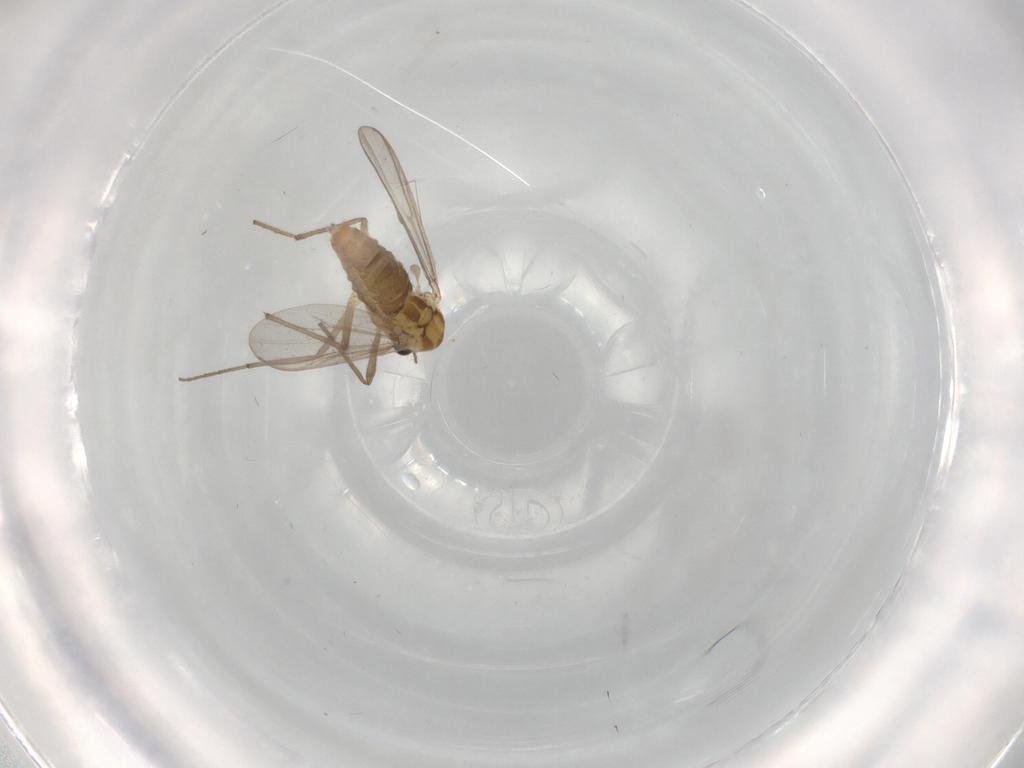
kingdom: Animalia
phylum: Arthropoda
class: Insecta
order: Diptera
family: Chironomidae
